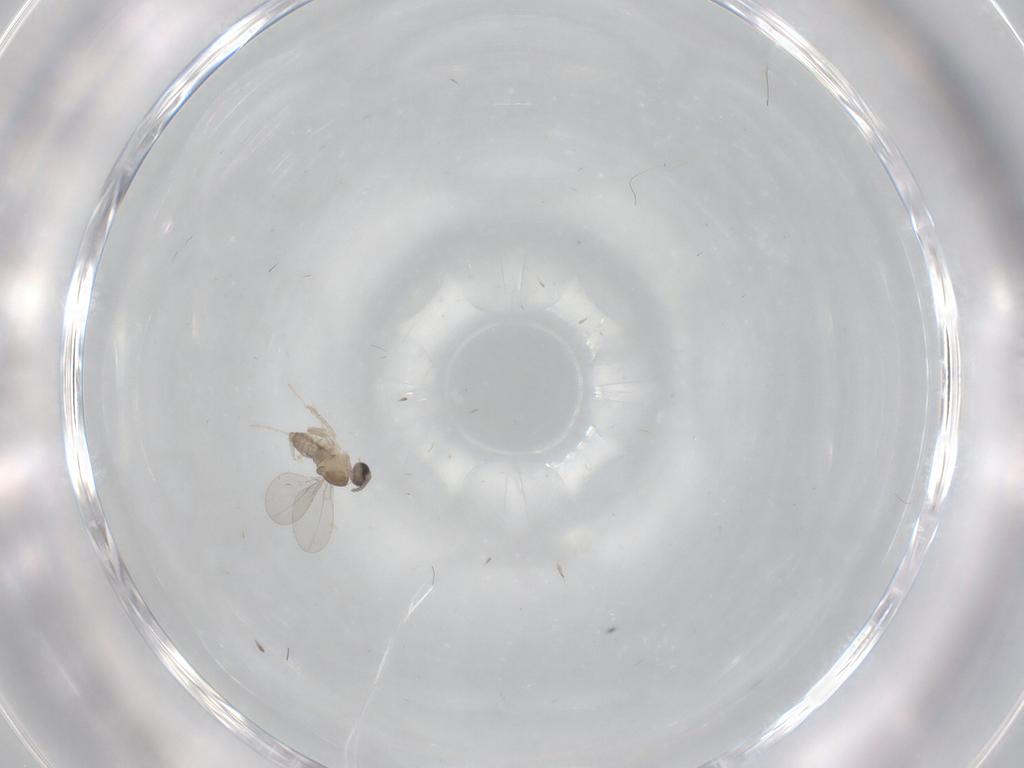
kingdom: Animalia
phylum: Arthropoda
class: Insecta
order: Diptera
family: Cecidomyiidae
